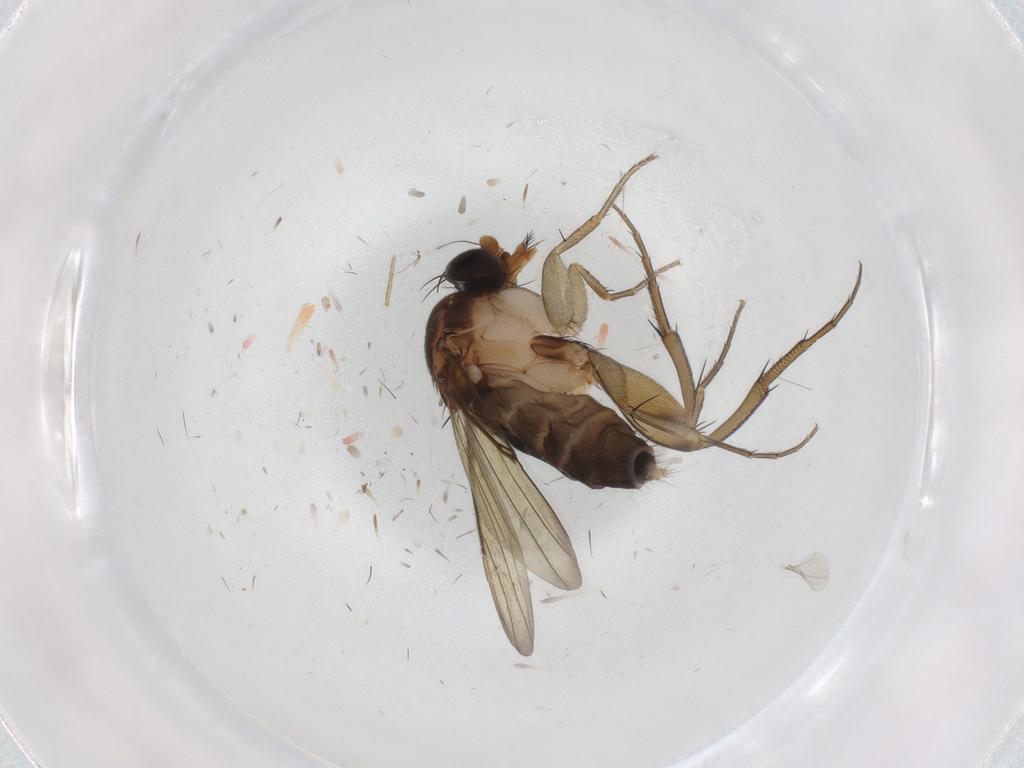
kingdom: Animalia
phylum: Arthropoda
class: Insecta
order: Diptera
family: Phoridae
